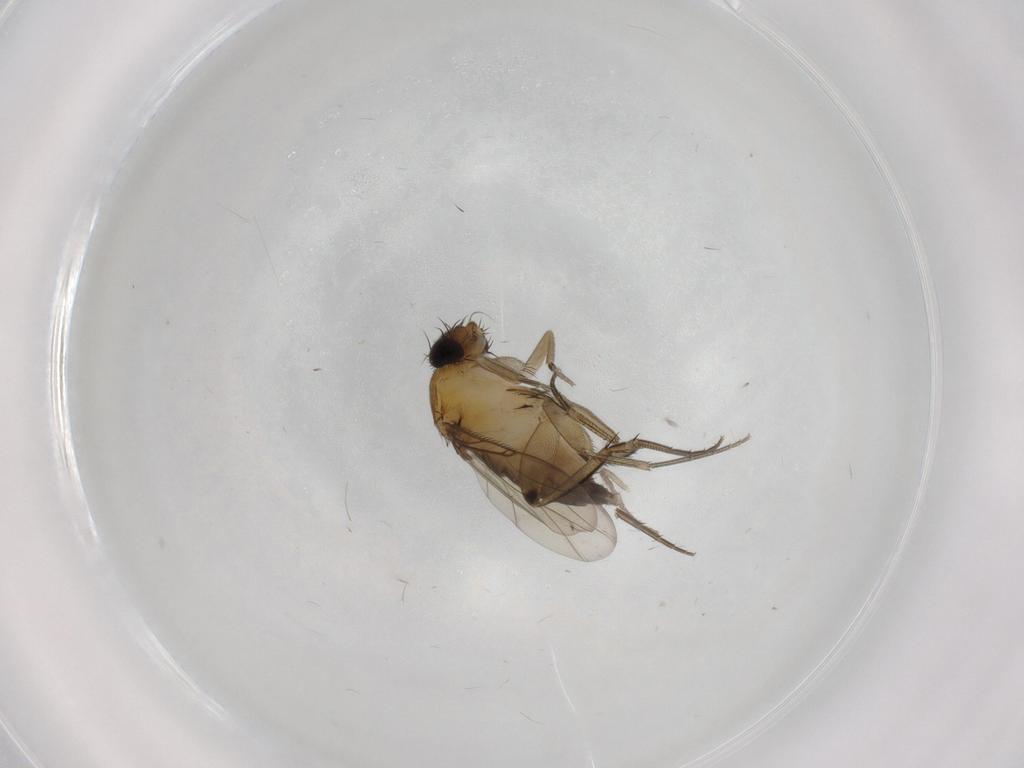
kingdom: Animalia
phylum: Arthropoda
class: Insecta
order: Diptera
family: Phoridae
